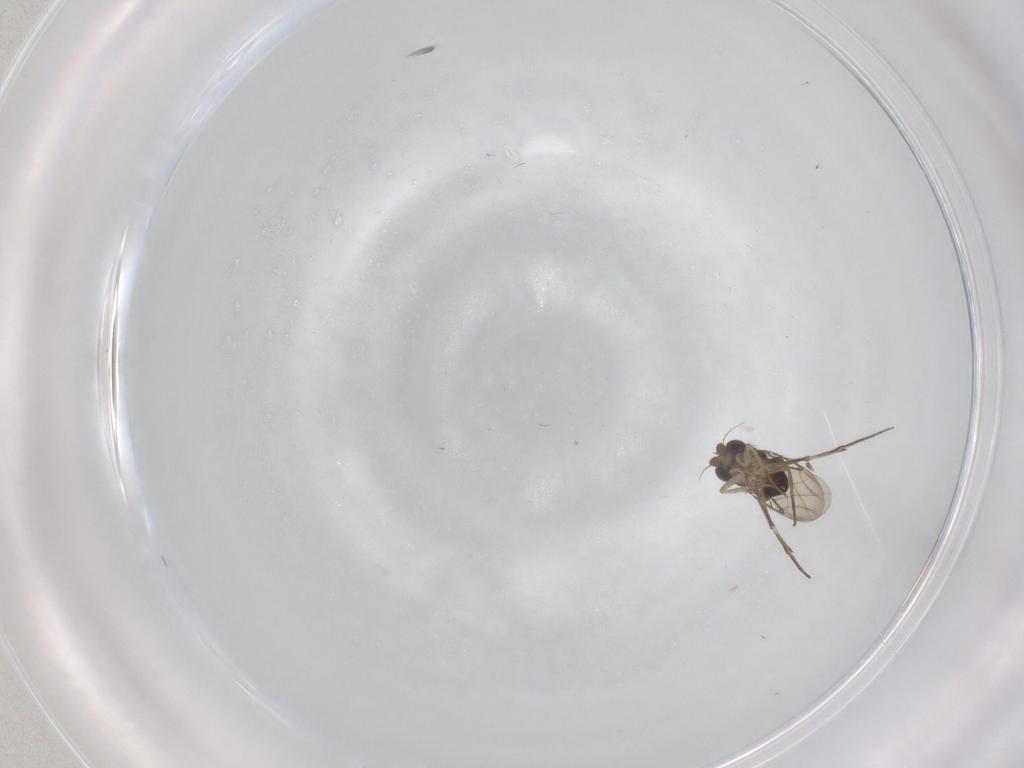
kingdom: Animalia
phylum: Arthropoda
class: Insecta
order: Diptera
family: Phoridae
